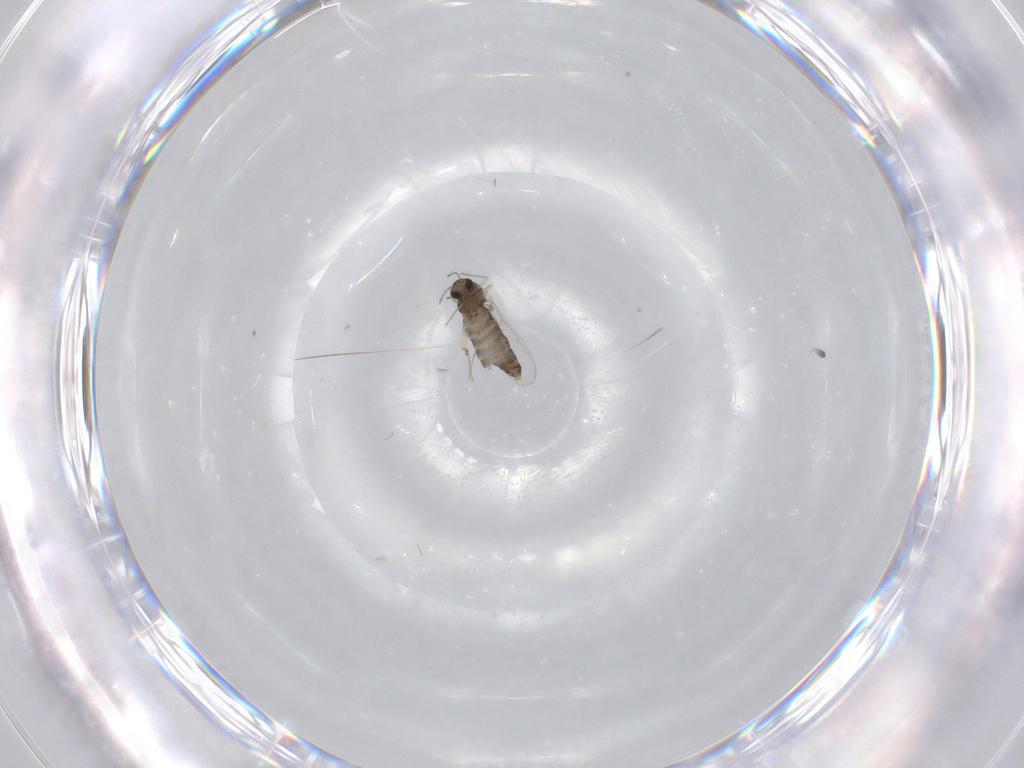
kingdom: Animalia
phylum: Arthropoda
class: Insecta
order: Diptera
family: Chironomidae
